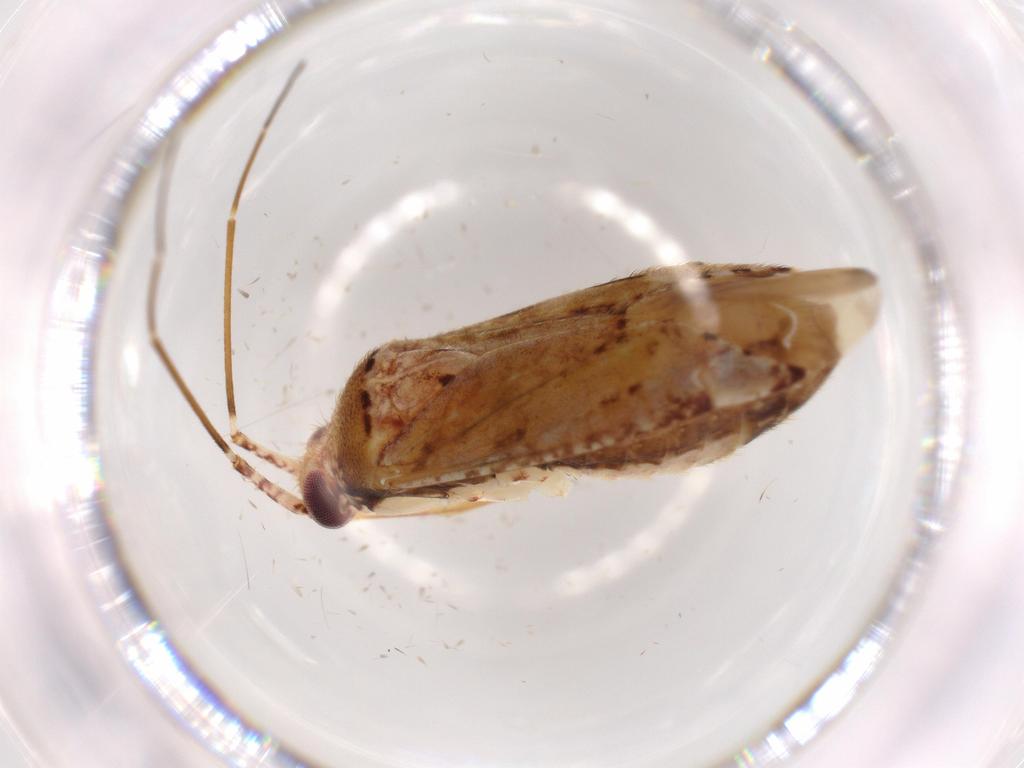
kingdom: Animalia
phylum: Arthropoda
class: Insecta
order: Hemiptera
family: Miridae
